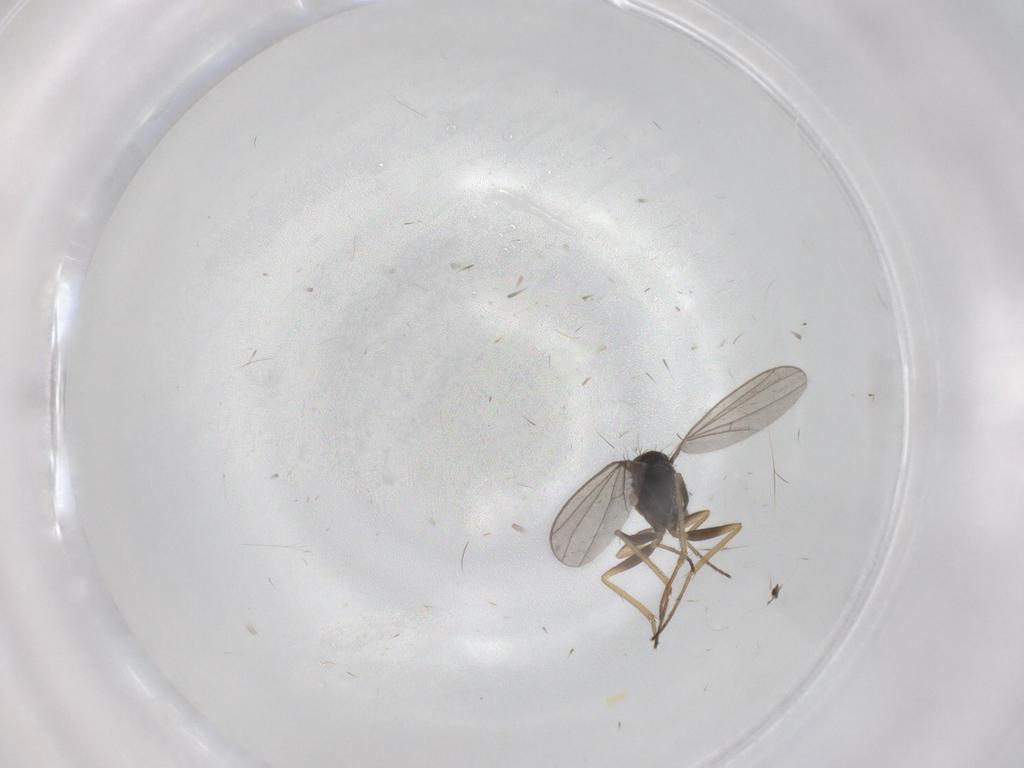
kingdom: Animalia
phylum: Arthropoda
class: Insecta
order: Diptera
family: Dolichopodidae
